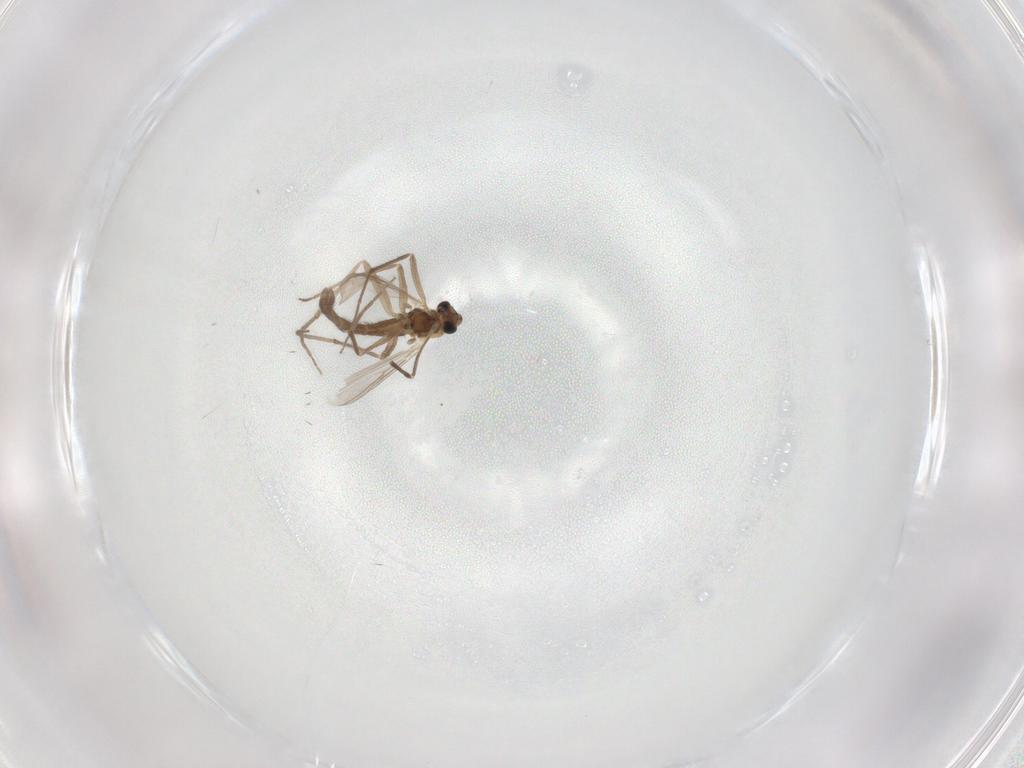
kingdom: Animalia
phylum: Arthropoda
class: Insecta
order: Diptera
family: Chironomidae
